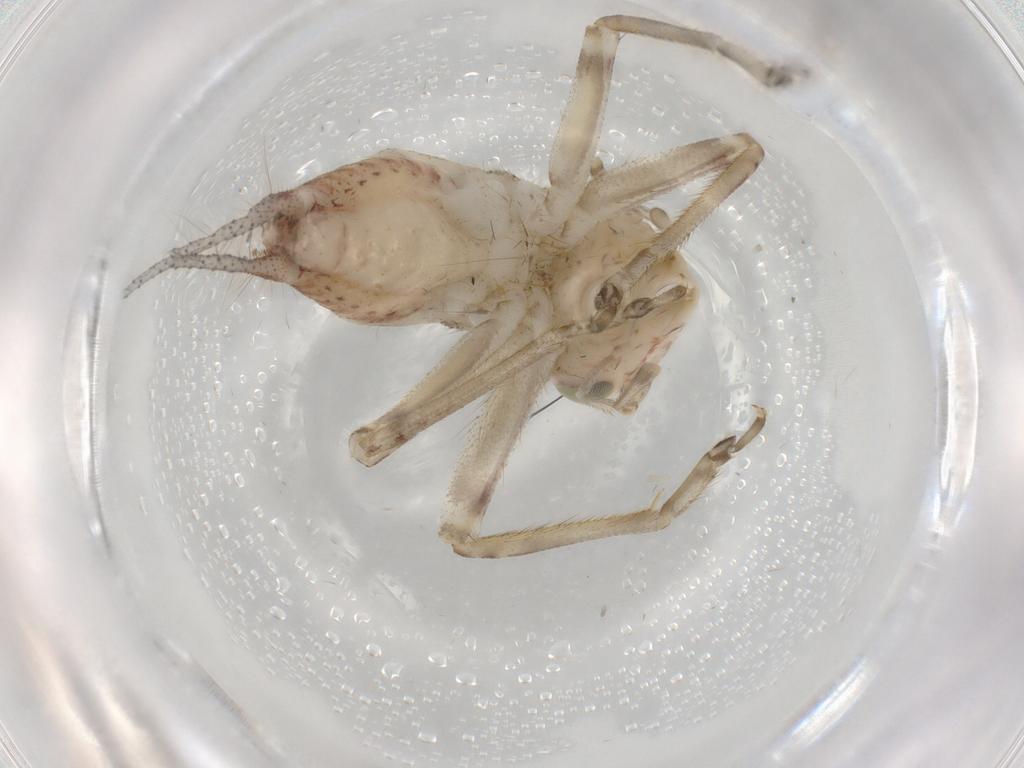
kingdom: Animalia
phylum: Arthropoda
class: Insecta
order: Orthoptera
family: Trigonidiidae
